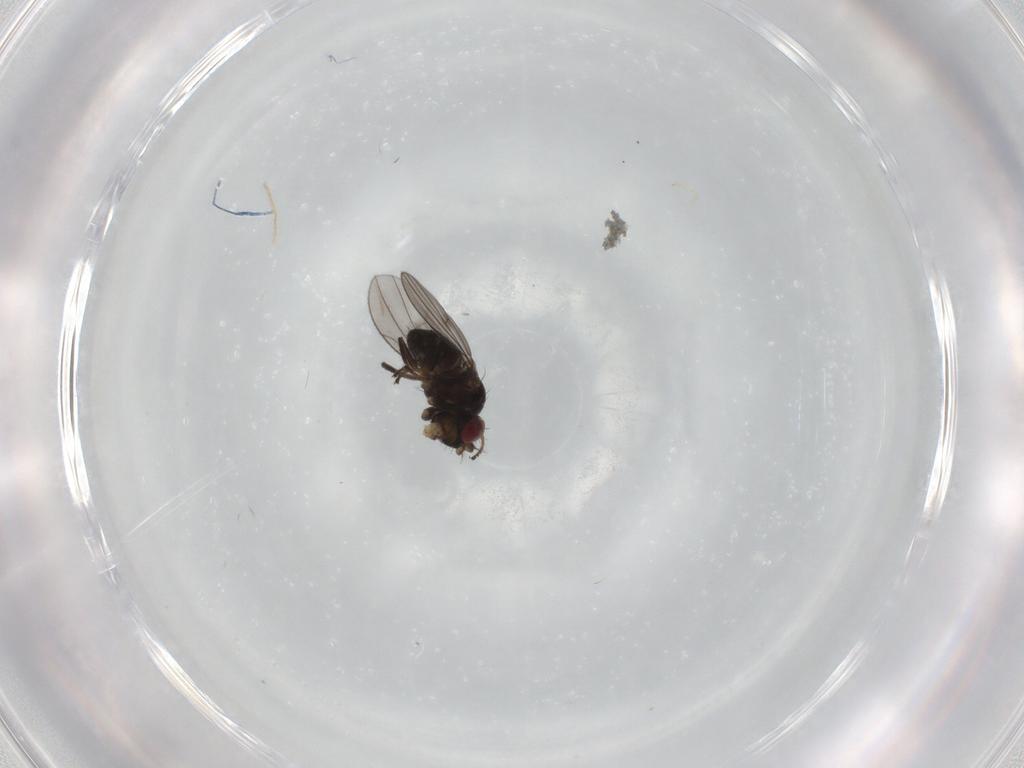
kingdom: Animalia
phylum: Arthropoda
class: Insecta
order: Diptera
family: Ephydridae
